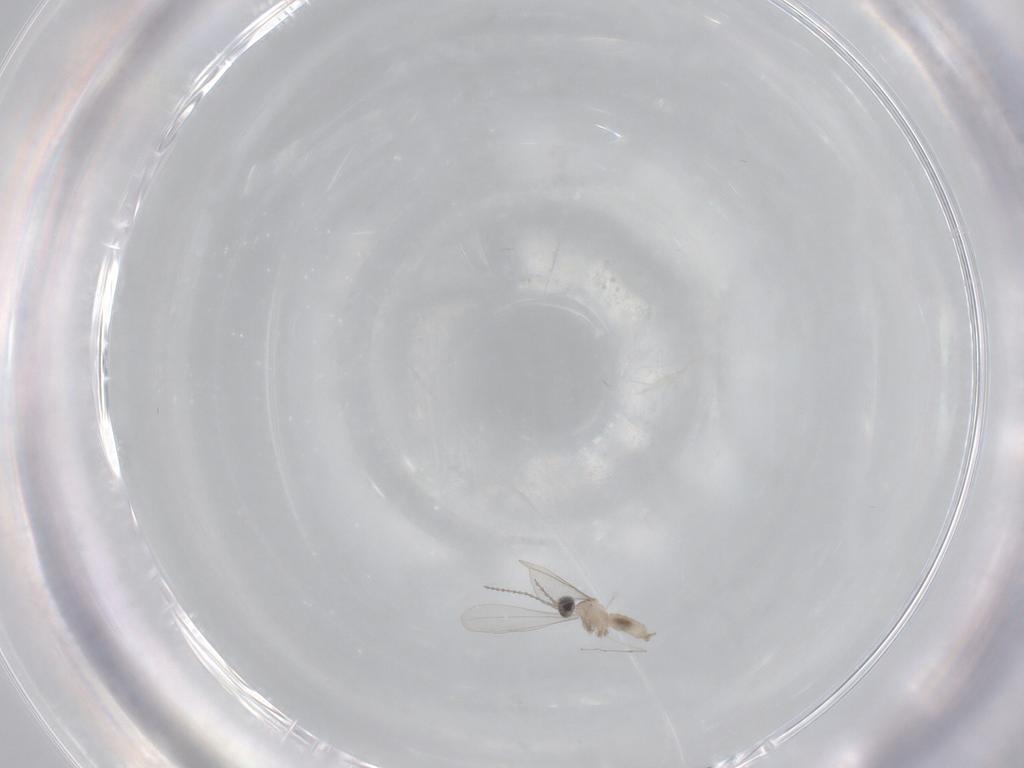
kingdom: Animalia
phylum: Arthropoda
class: Insecta
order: Diptera
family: Cecidomyiidae
